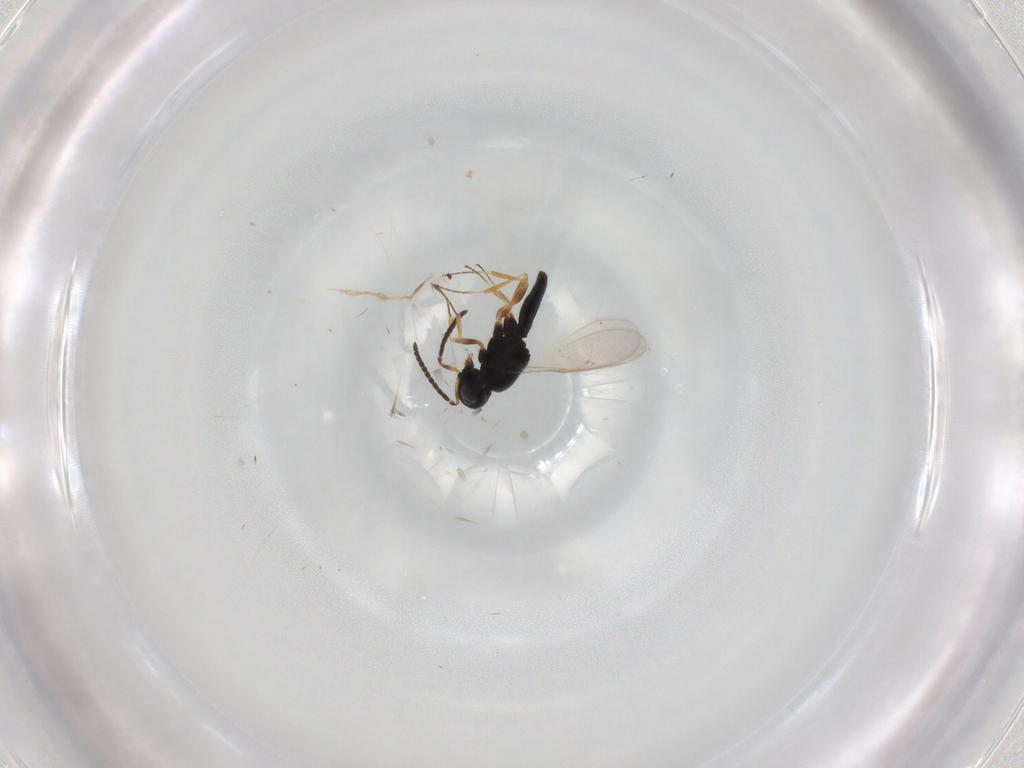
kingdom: Animalia
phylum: Arthropoda
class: Insecta
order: Hymenoptera
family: Scelionidae
